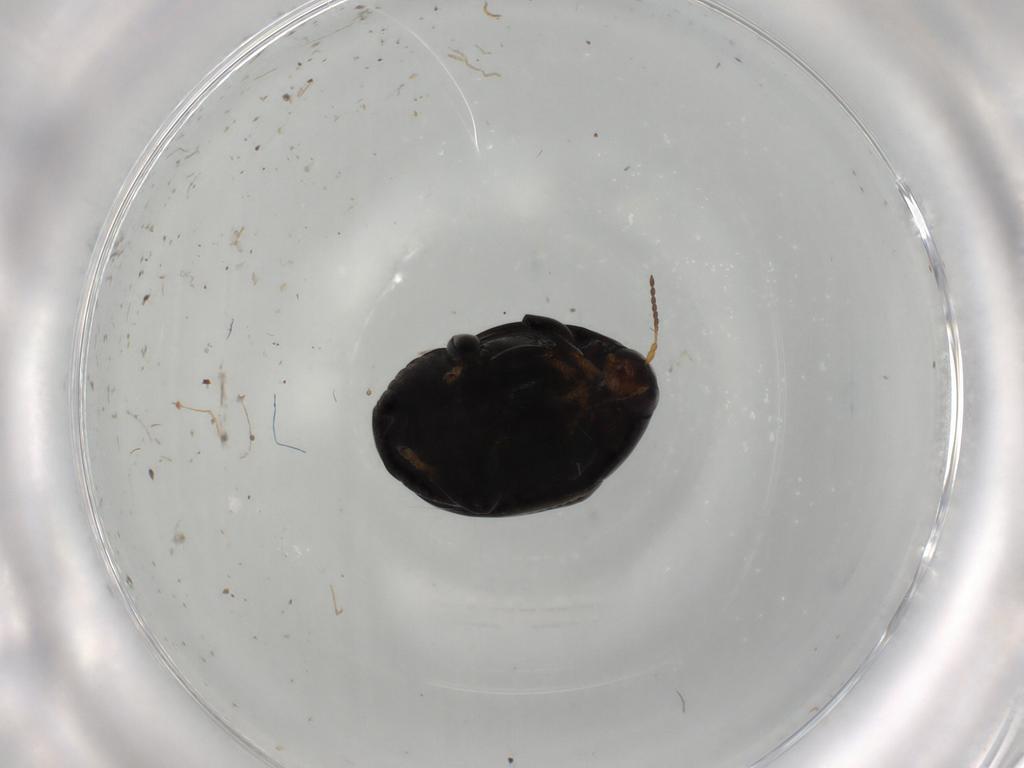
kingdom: Animalia
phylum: Arthropoda
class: Insecta
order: Coleoptera
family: Chrysomelidae
